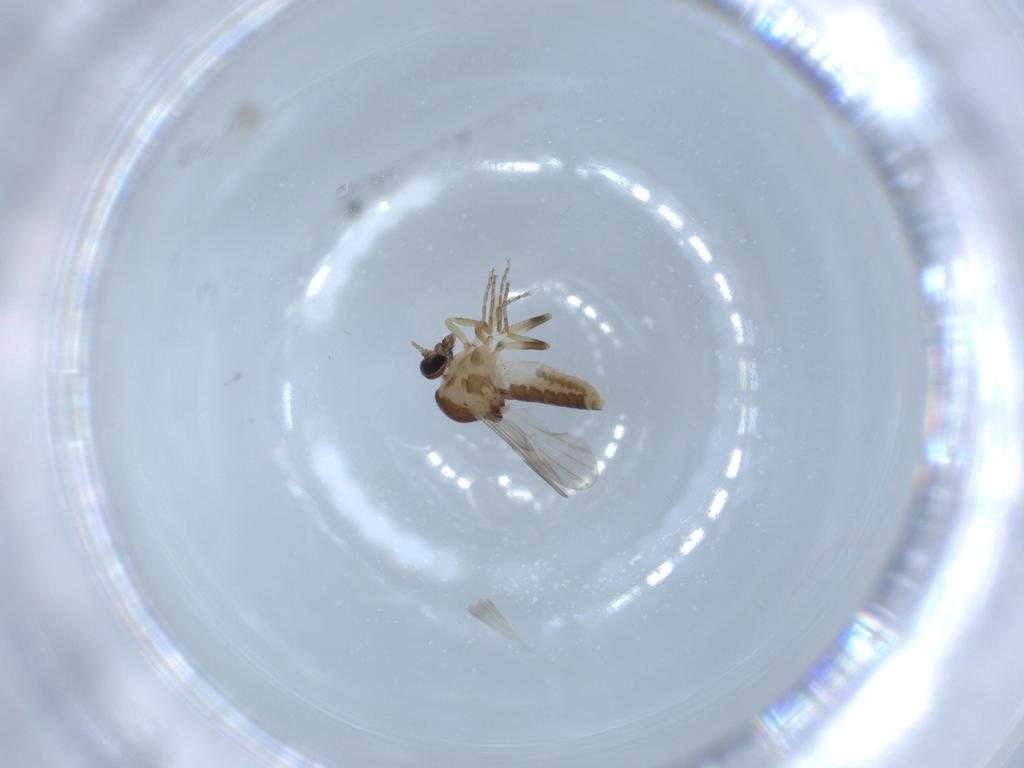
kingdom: Animalia
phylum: Arthropoda
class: Insecta
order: Diptera
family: Ceratopogonidae
